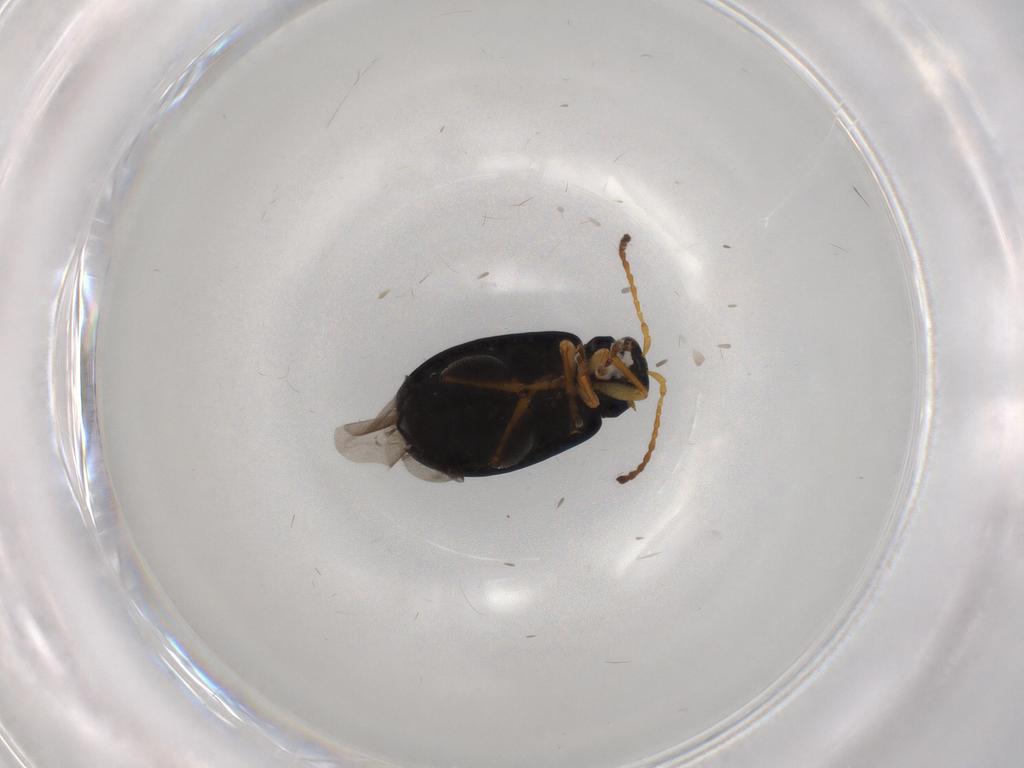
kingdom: Animalia
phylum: Arthropoda
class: Insecta
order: Coleoptera
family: Chrysomelidae
